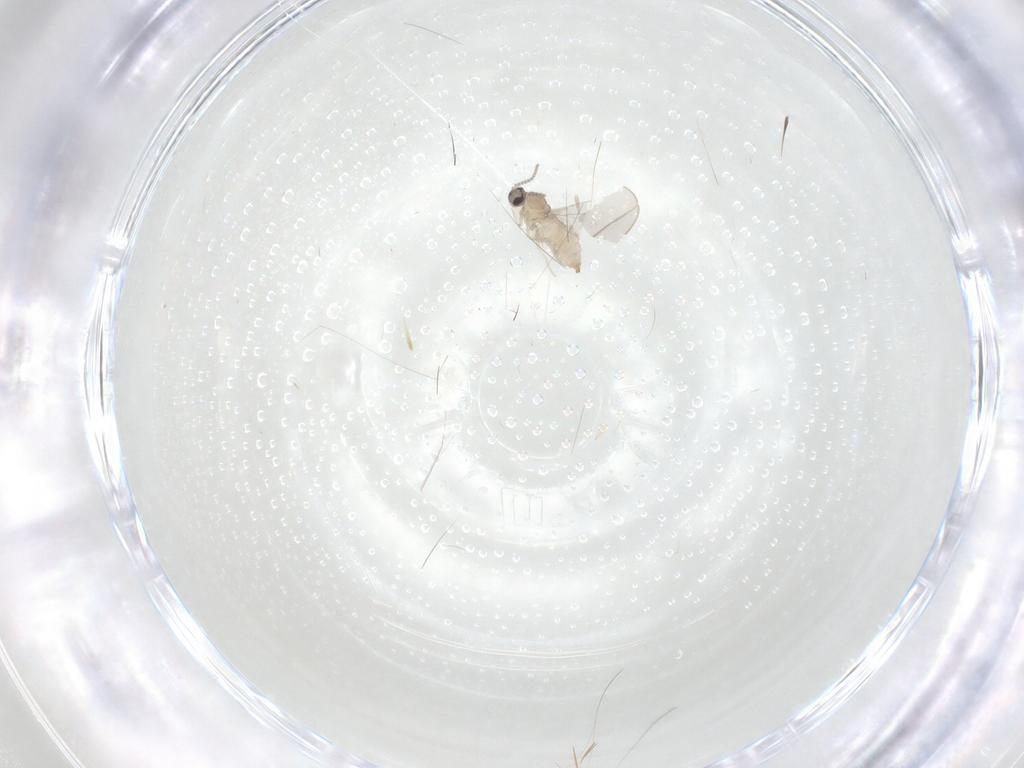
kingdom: Animalia
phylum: Arthropoda
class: Insecta
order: Diptera
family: Cecidomyiidae
